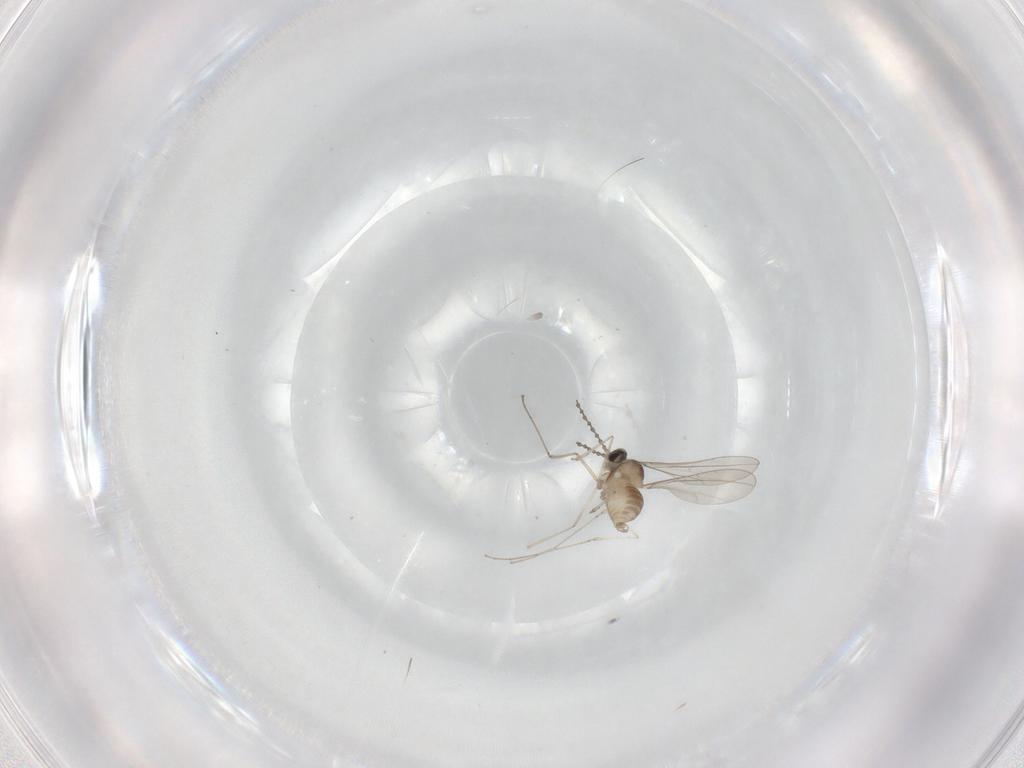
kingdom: Animalia
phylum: Arthropoda
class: Insecta
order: Diptera
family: Cecidomyiidae
